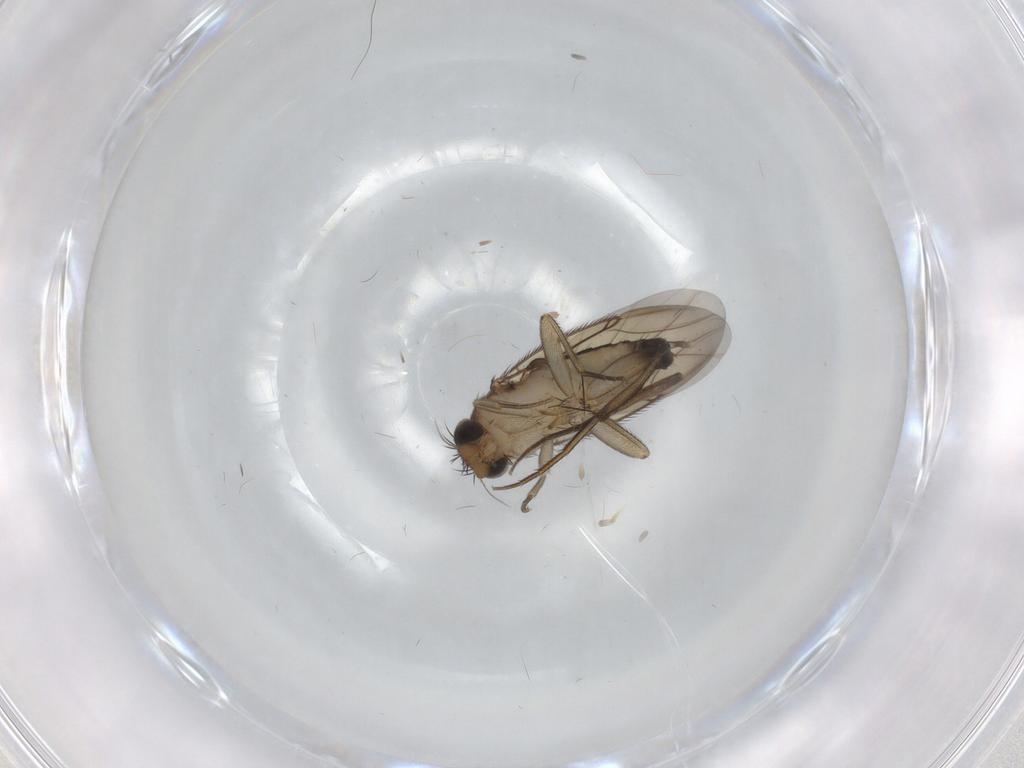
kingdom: Animalia
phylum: Arthropoda
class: Insecta
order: Diptera
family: Phoridae
